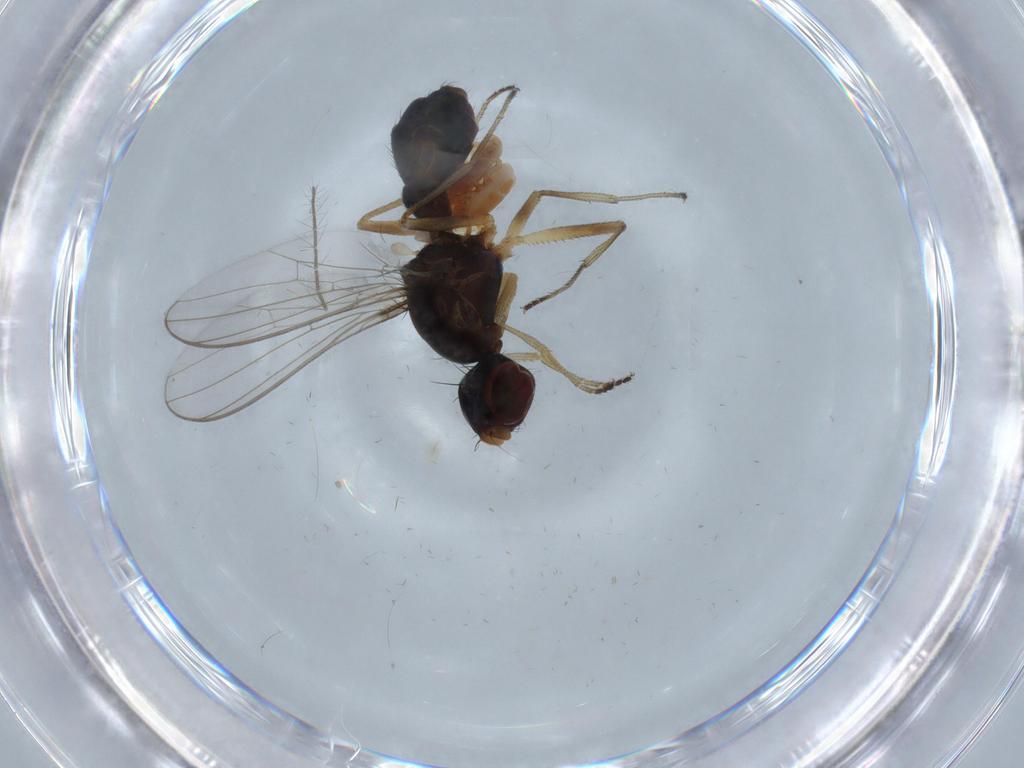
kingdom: Animalia
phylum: Arthropoda
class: Insecta
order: Diptera
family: Sepsidae
